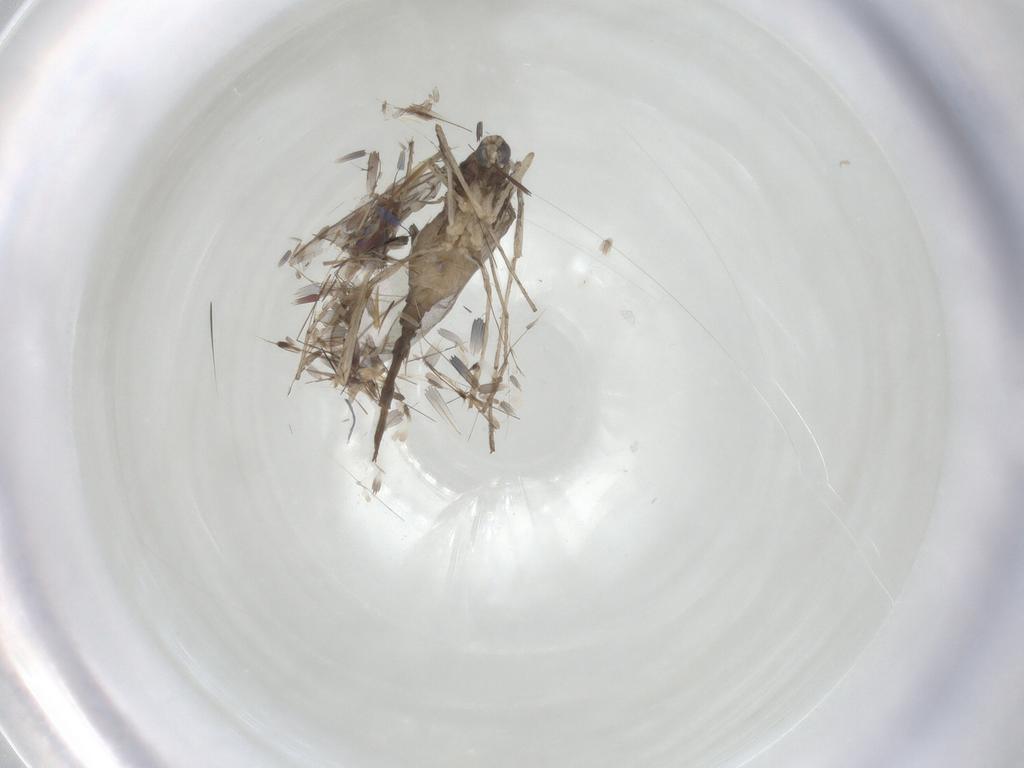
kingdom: Animalia
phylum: Arthropoda
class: Insecta
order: Diptera
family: Cecidomyiidae
